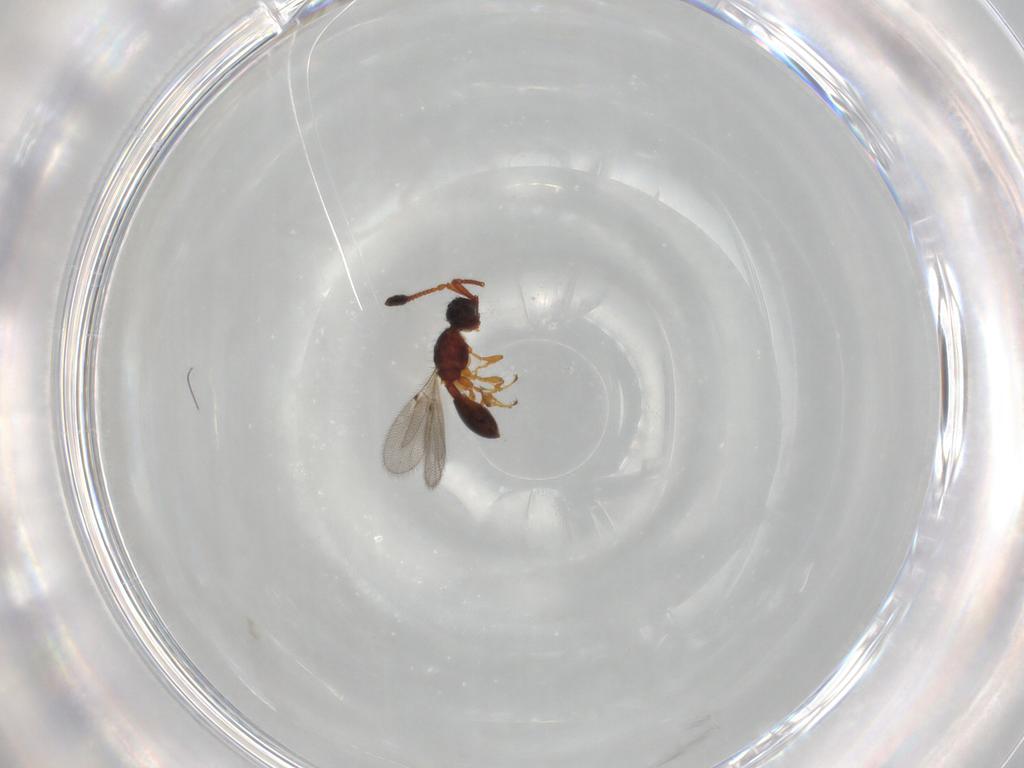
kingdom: Animalia
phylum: Arthropoda
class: Insecta
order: Hymenoptera
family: Diapriidae
